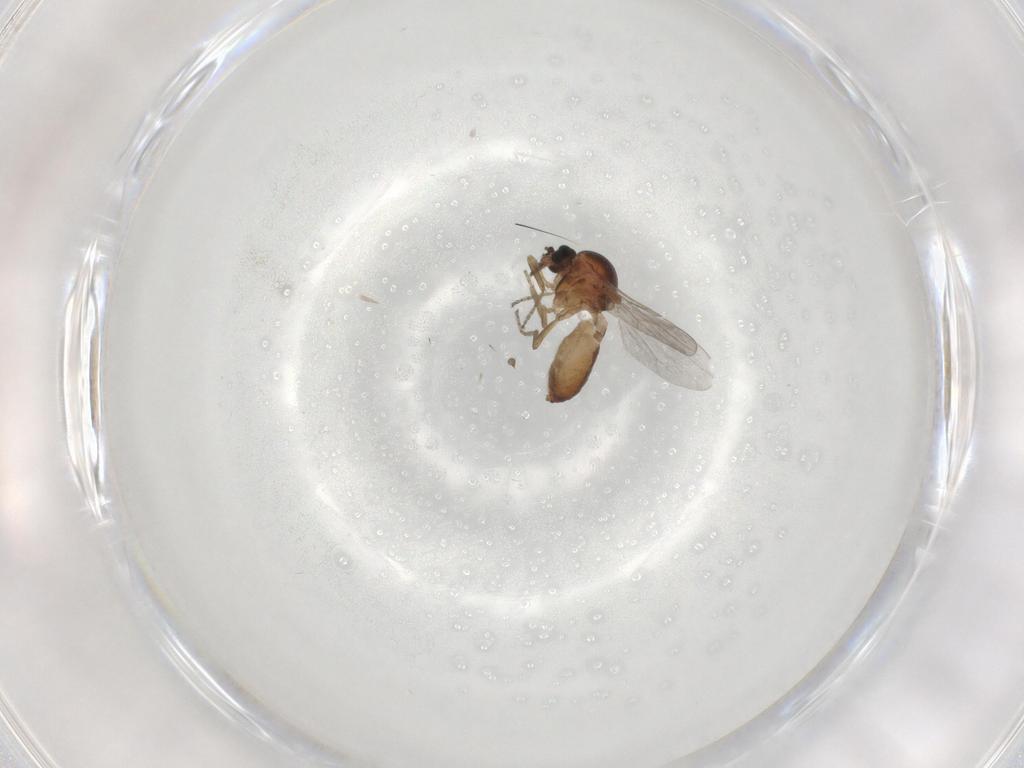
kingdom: Animalia
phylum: Arthropoda
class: Insecta
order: Diptera
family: Ceratopogonidae
